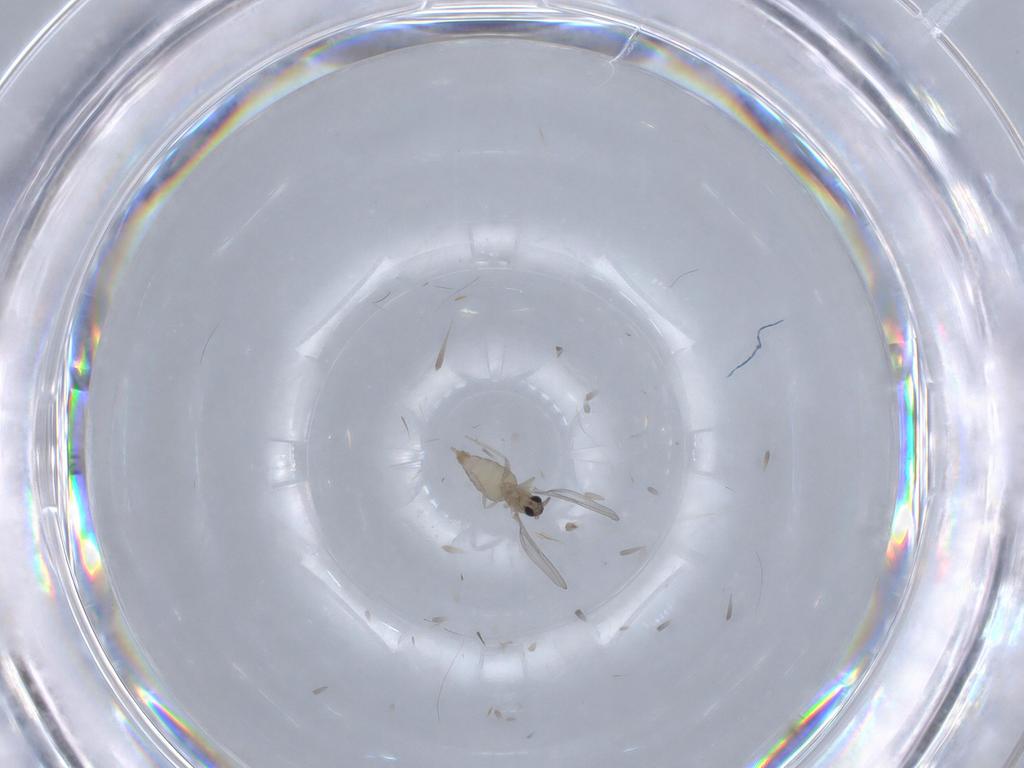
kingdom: Animalia
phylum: Arthropoda
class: Insecta
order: Diptera
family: Cecidomyiidae
